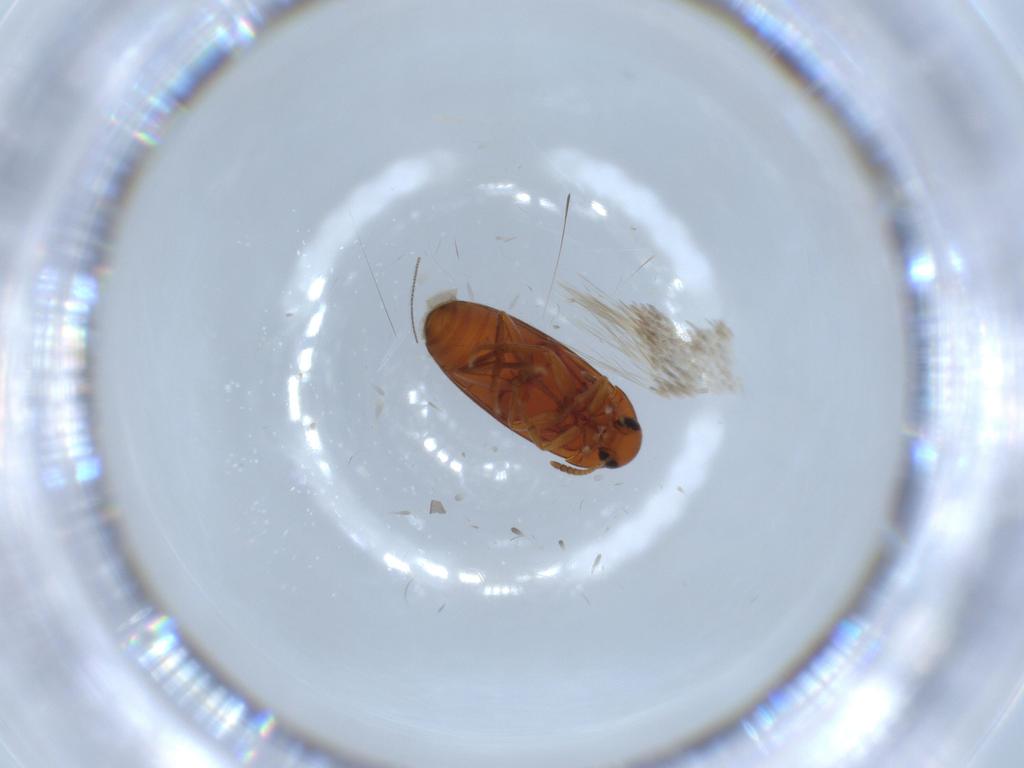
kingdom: Animalia
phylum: Arthropoda
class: Insecta
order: Coleoptera
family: Scraptiidae
